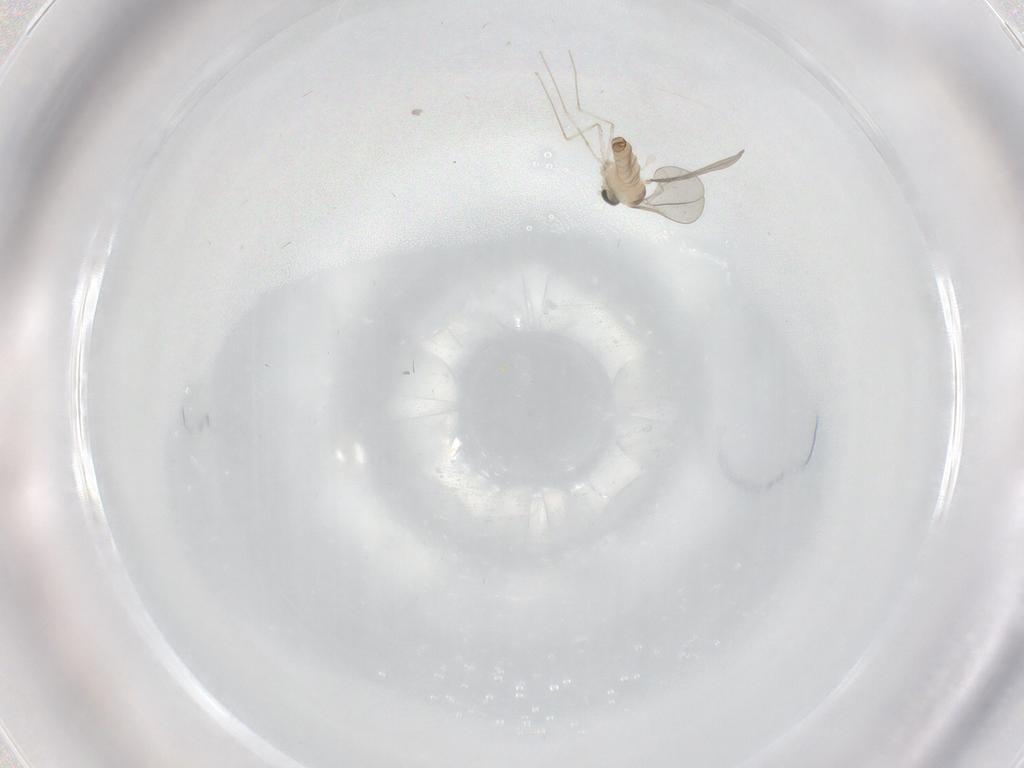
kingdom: Animalia
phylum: Arthropoda
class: Insecta
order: Diptera
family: Cecidomyiidae
